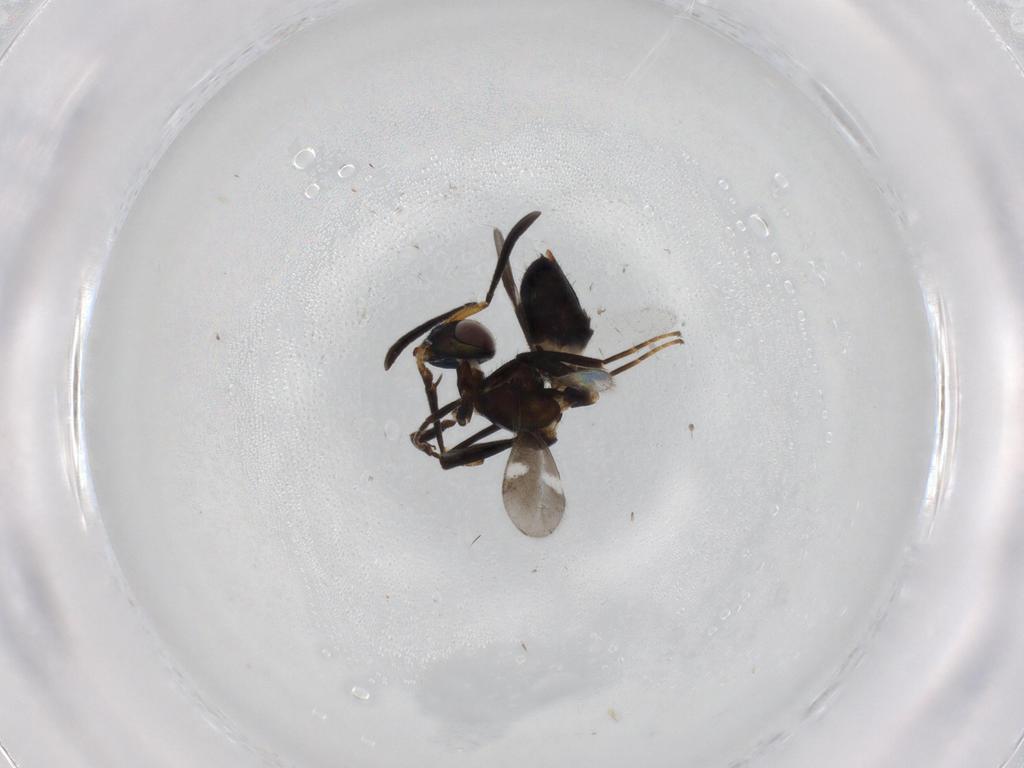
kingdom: Animalia
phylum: Arthropoda
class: Insecta
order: Hymenoptera
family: Eupelmidae
